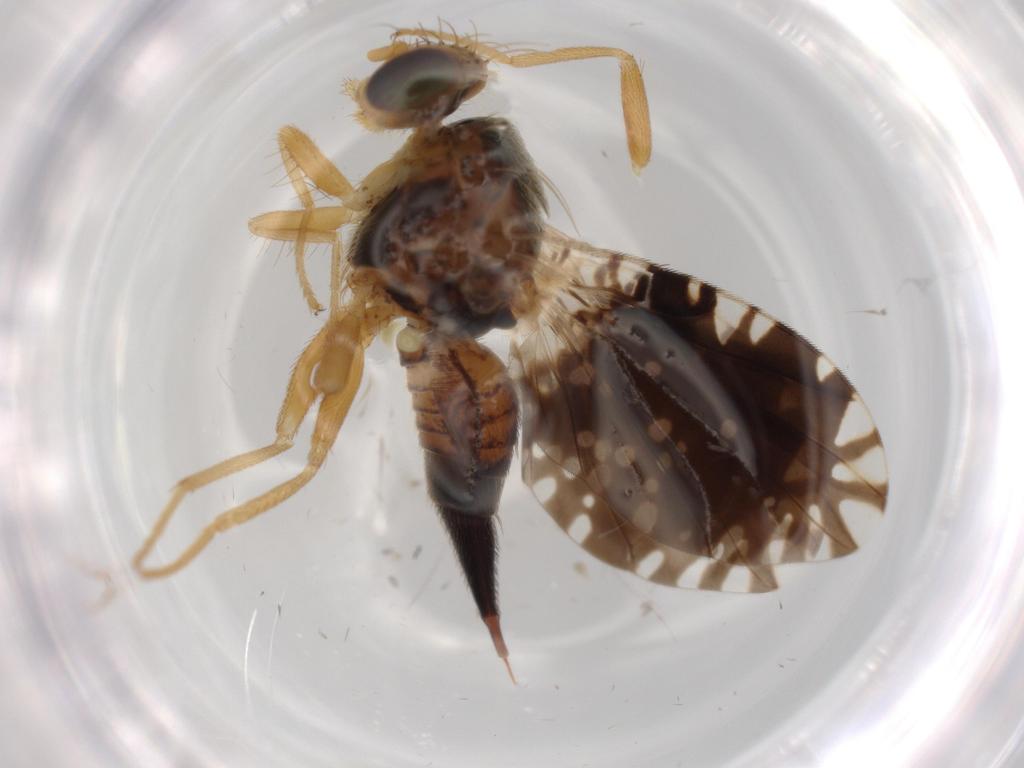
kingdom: Animalia
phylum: Arthropoda
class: Insecta
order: Diptera
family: Tephritidae
